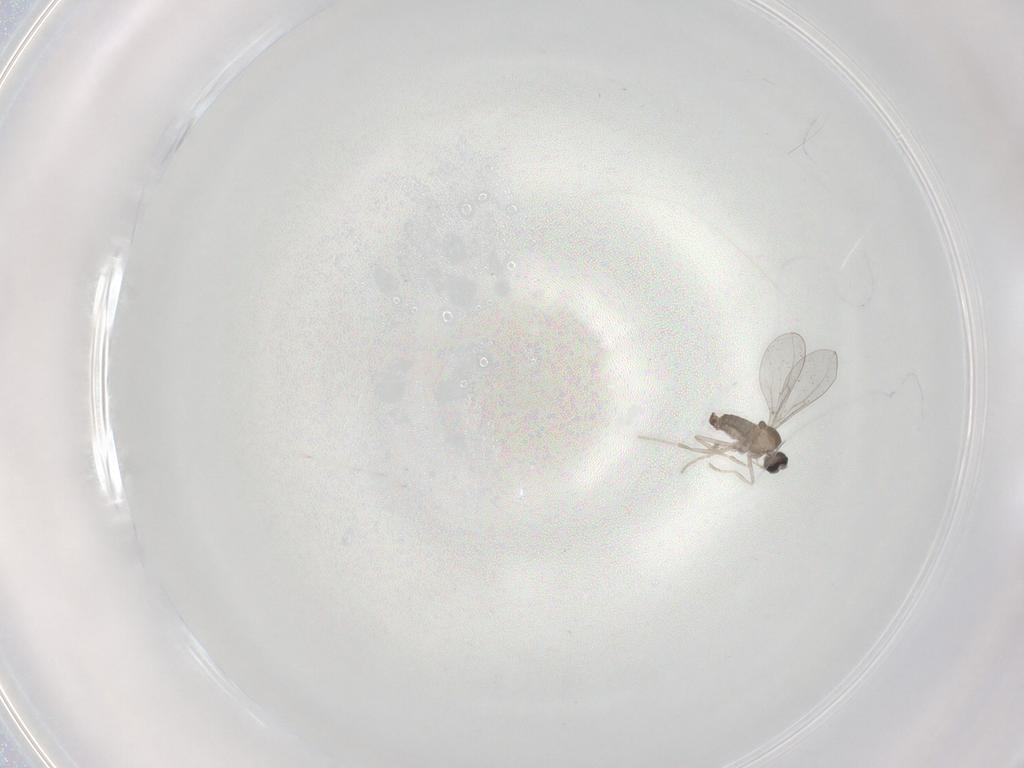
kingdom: Animalia
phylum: Arthropoda
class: Insecta
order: Diptera
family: Cecidomyiidae
